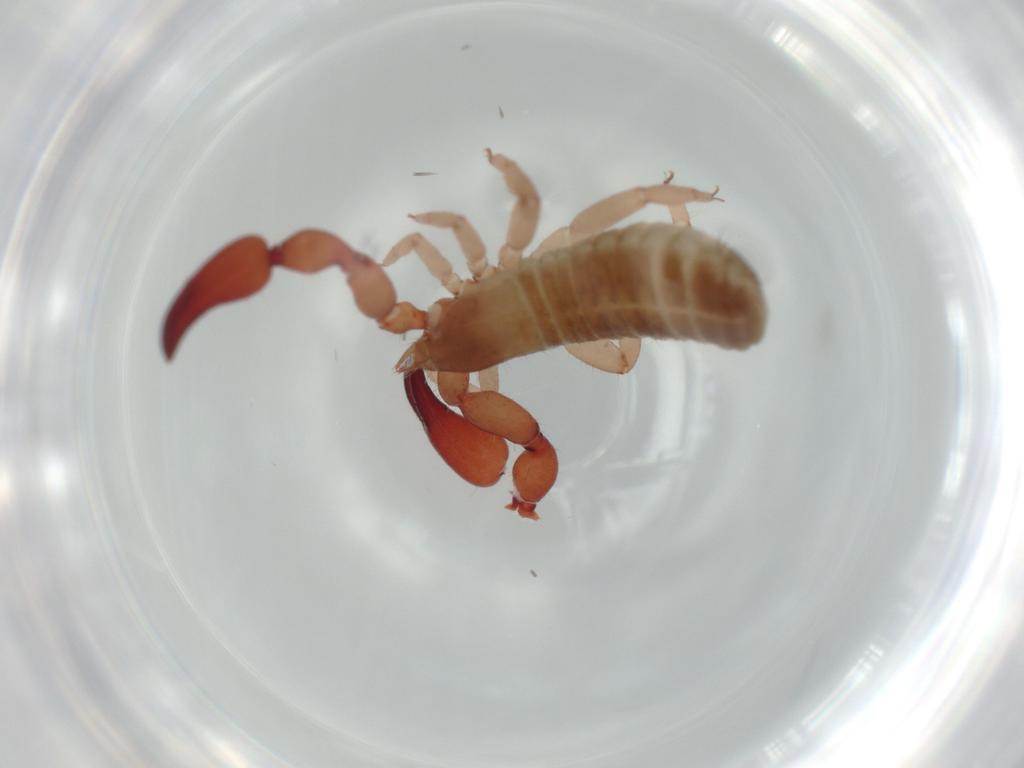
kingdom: Animalia
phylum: Arthropoda
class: Arachnida
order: Pseudoscorpiones
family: Atemnidae
